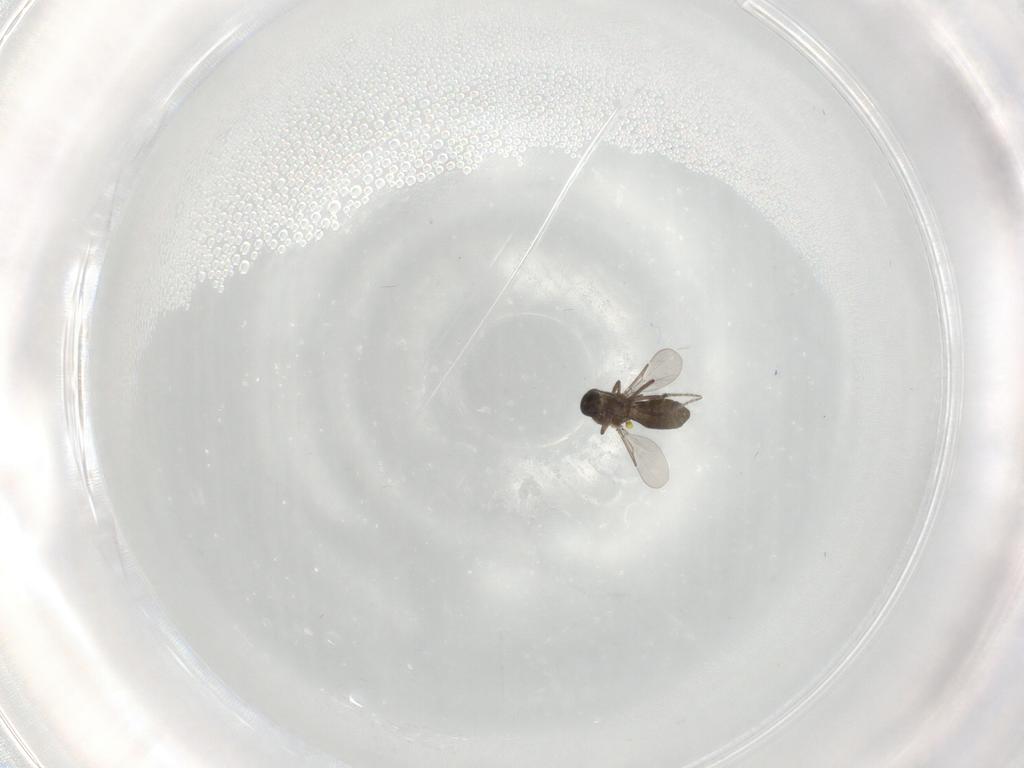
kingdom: Animalia
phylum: Arthropoda
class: Insecta
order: Diptera
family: Ceratopogonidae
